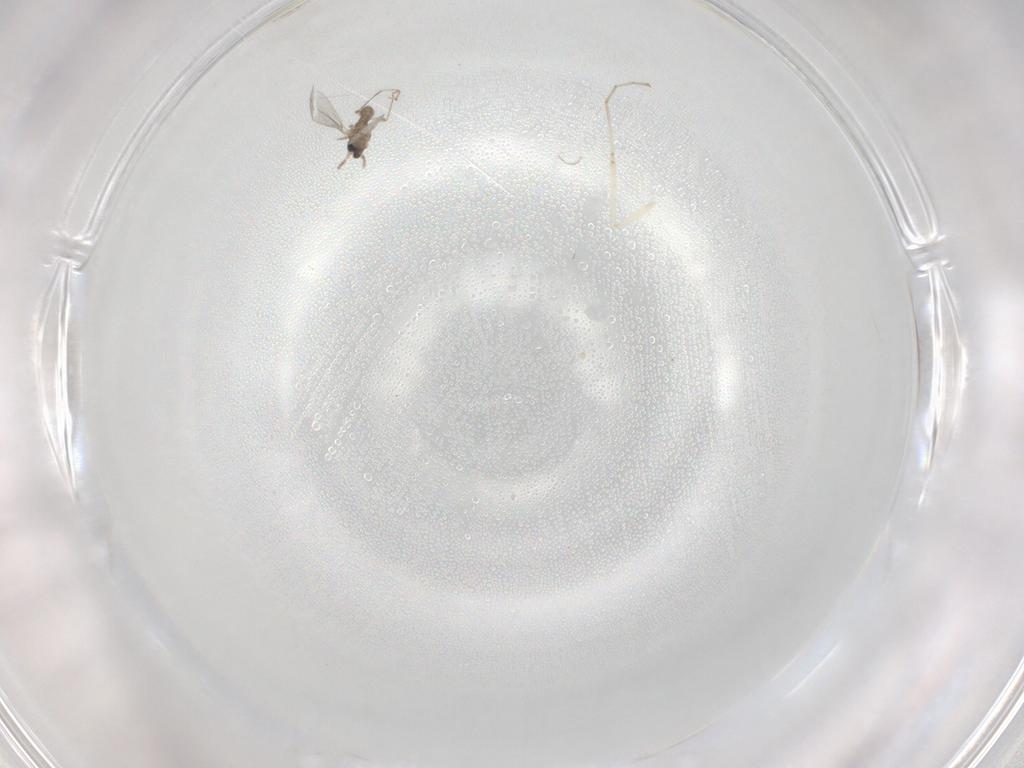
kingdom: Animalia
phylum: Arthropoda
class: Insecta
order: Diptera
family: Cecidomyiidae
